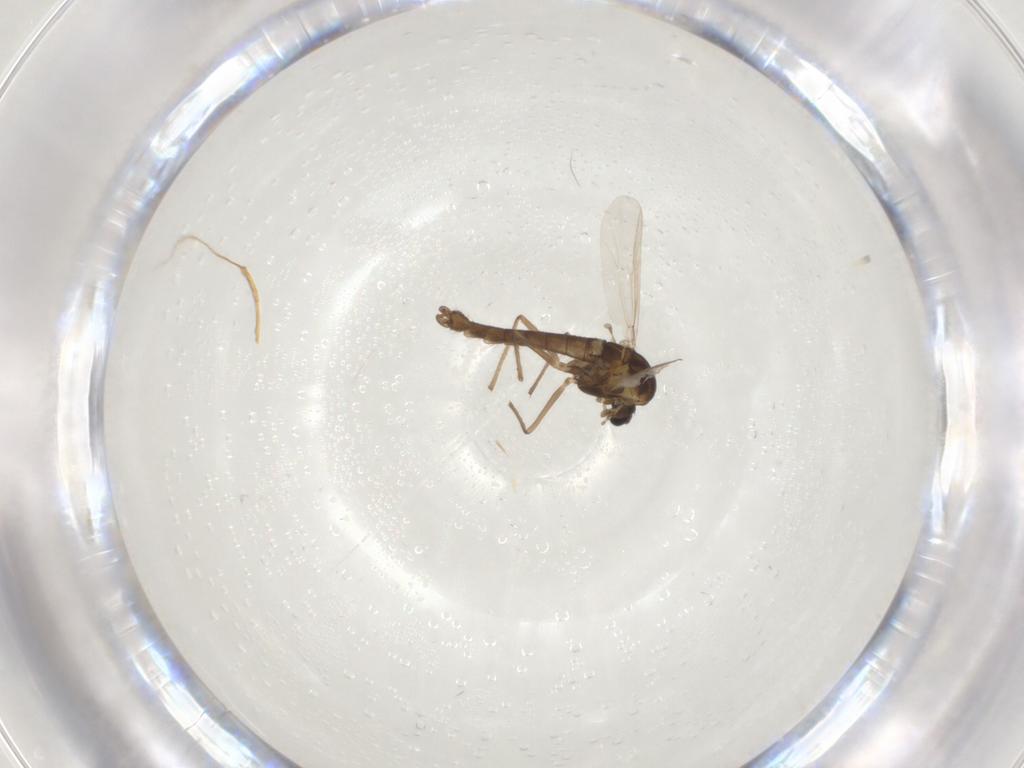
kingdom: Animalia
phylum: Arthropoda
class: Insecta
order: Diptera
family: Chironomidae
